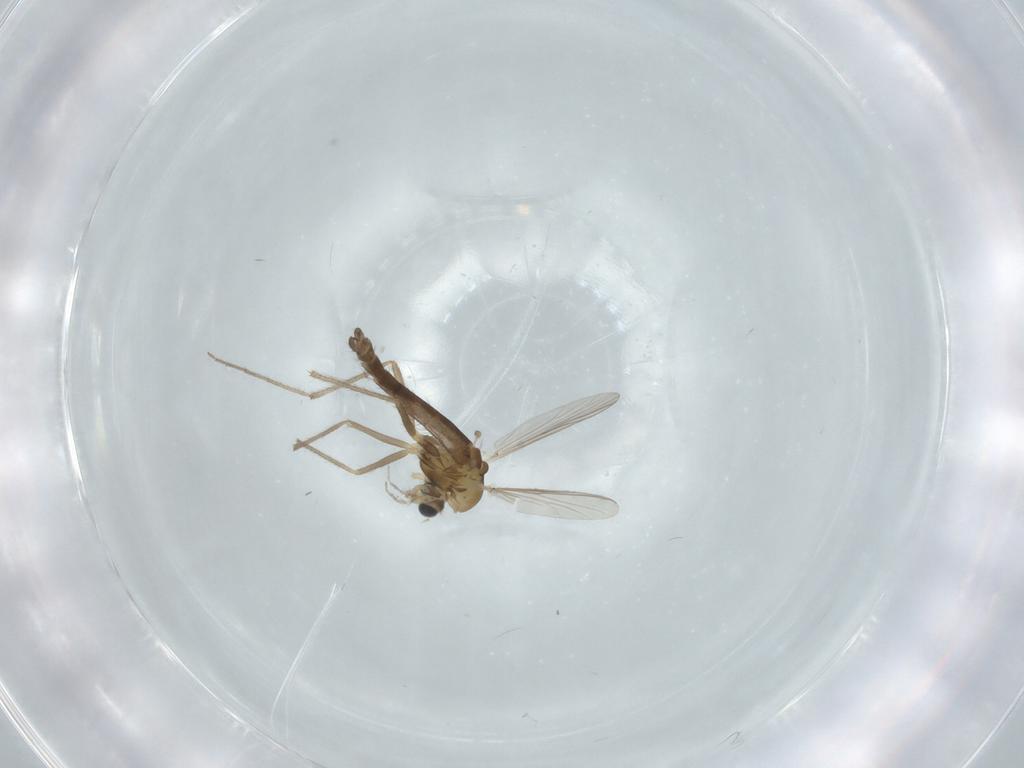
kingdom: Animalia
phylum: Arthropoda
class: Insecta
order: Diptera
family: Chironomidae
